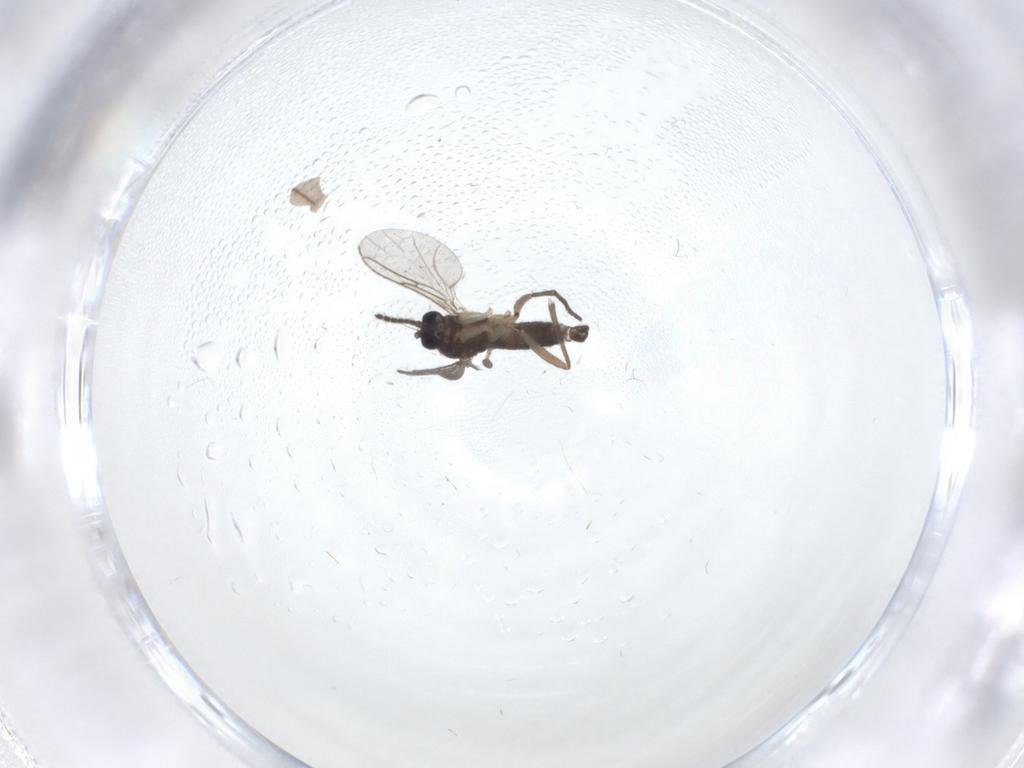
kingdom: Animalia
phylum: Arthropoda
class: Insecta
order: Diptera
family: Sciaridae
